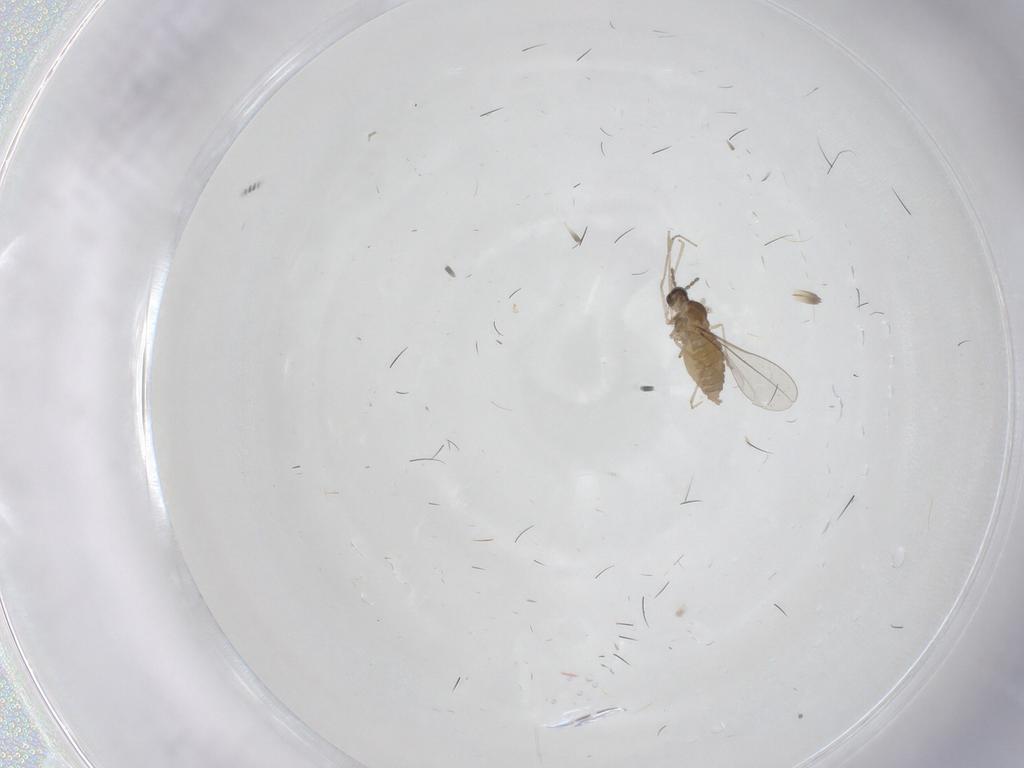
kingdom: Animalia
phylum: Arthropoda
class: Insecta
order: Diptera
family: Cecidomyiidae
